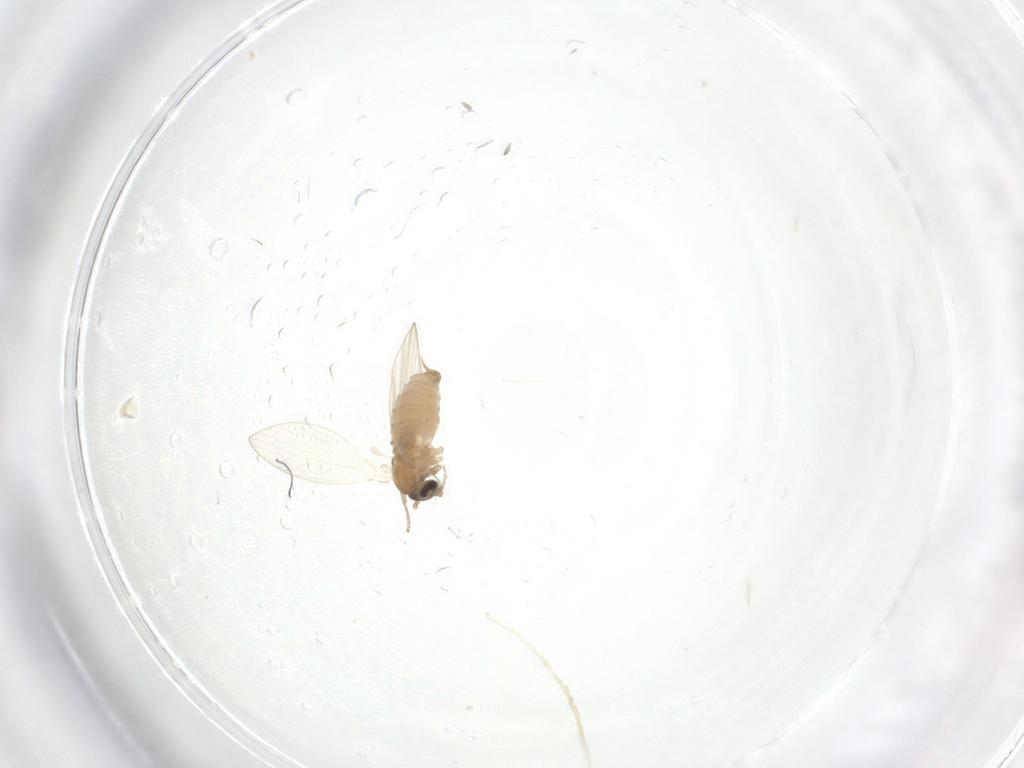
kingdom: Animalia
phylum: Arthropoda
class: Insecta
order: Diptera
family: Psychodidae
